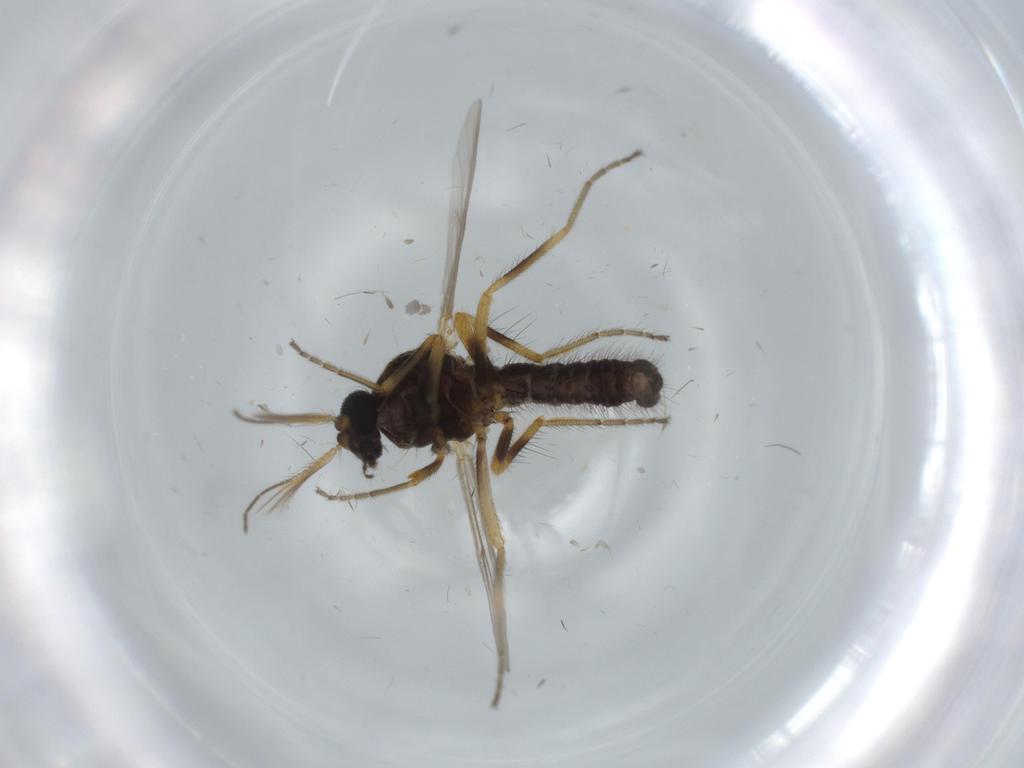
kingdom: Animalia
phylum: Arthropoda
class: Insecta
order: Diptera
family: Ceratopogonidae
